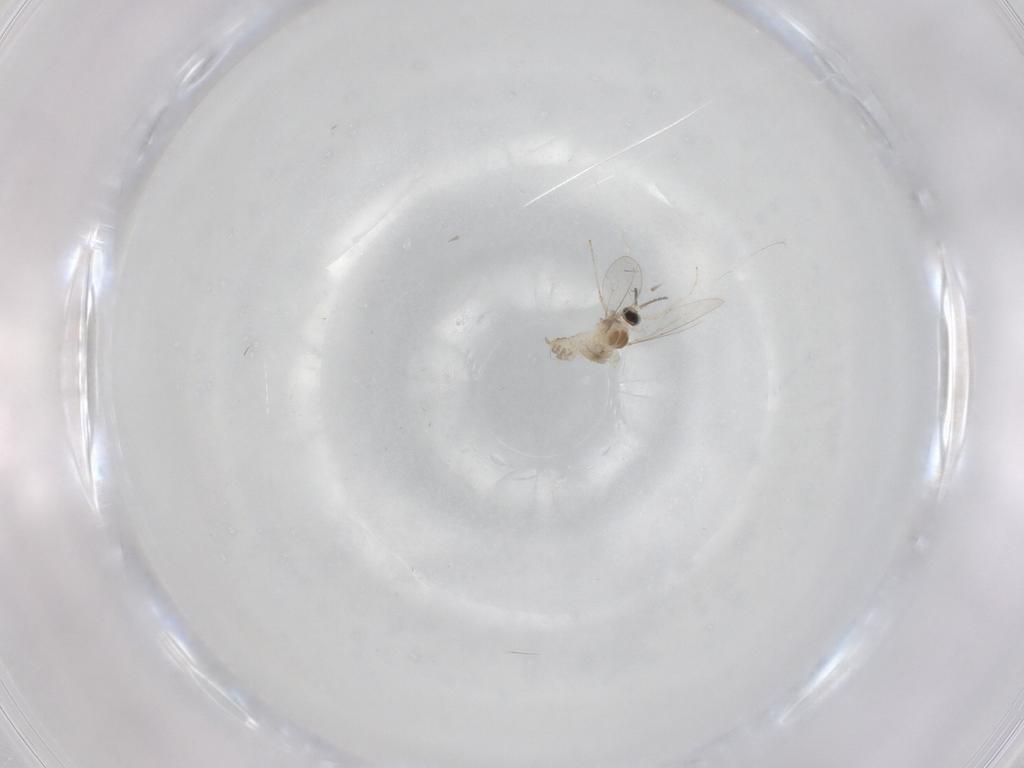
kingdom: Animalia
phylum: Arthropoda
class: Insecta
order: Diptera
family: Cecidomyiidae
